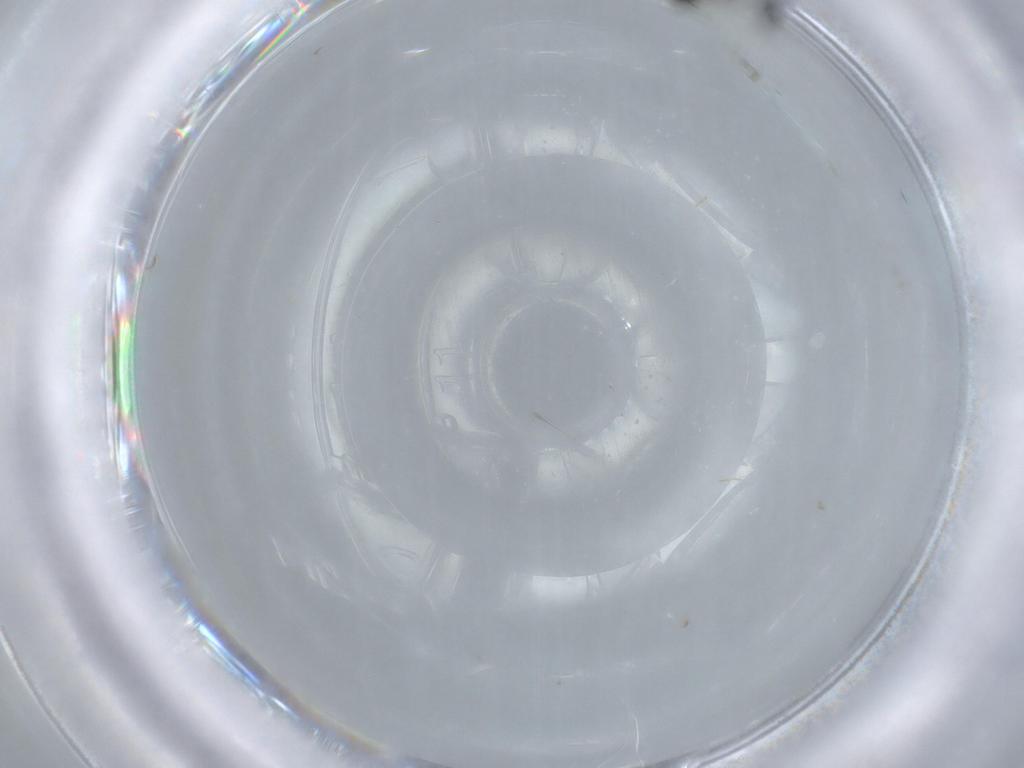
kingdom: Animalia
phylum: Arthropoda
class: Insecta
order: Diptera
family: Sciaridae
